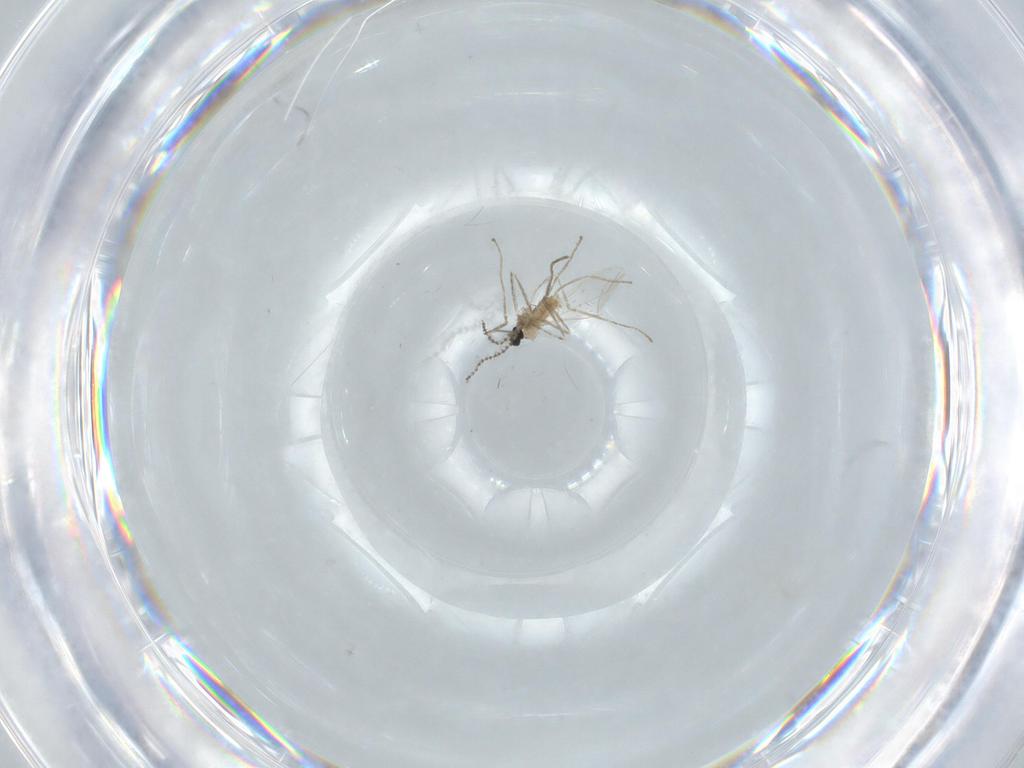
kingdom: Animalia
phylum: Arthropoda
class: Insecta
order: Diptera
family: Cecidomyiidae
